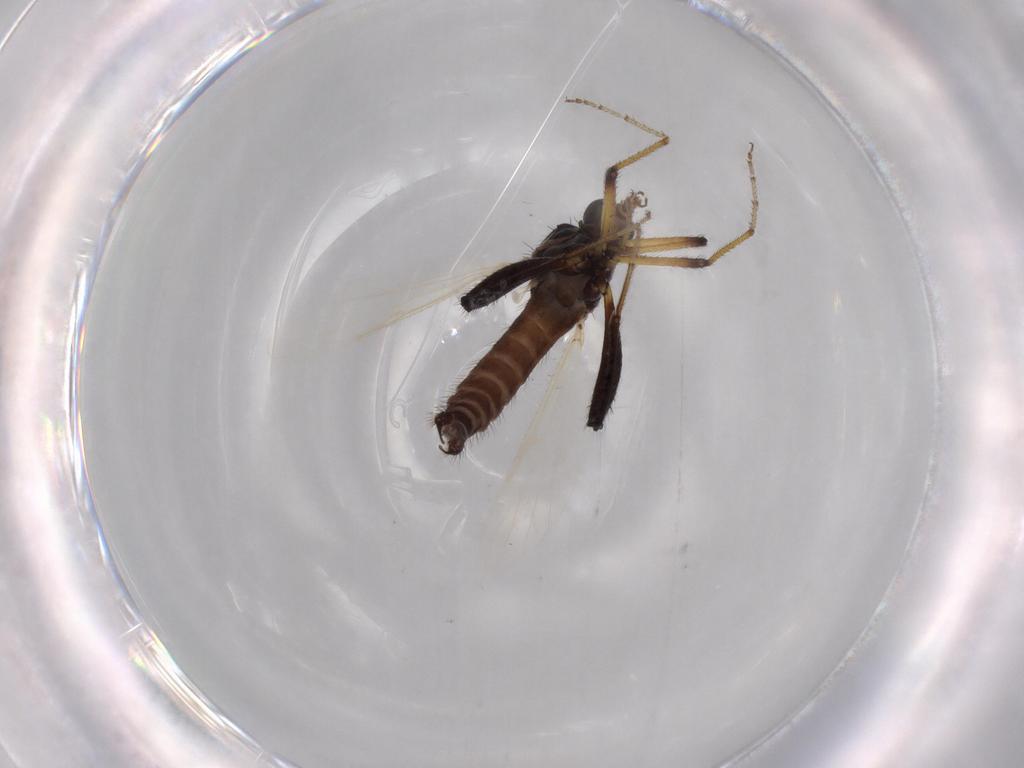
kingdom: Animalia
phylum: Arthropoda
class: Insecta
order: Diptera
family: Ceratopogonidae
